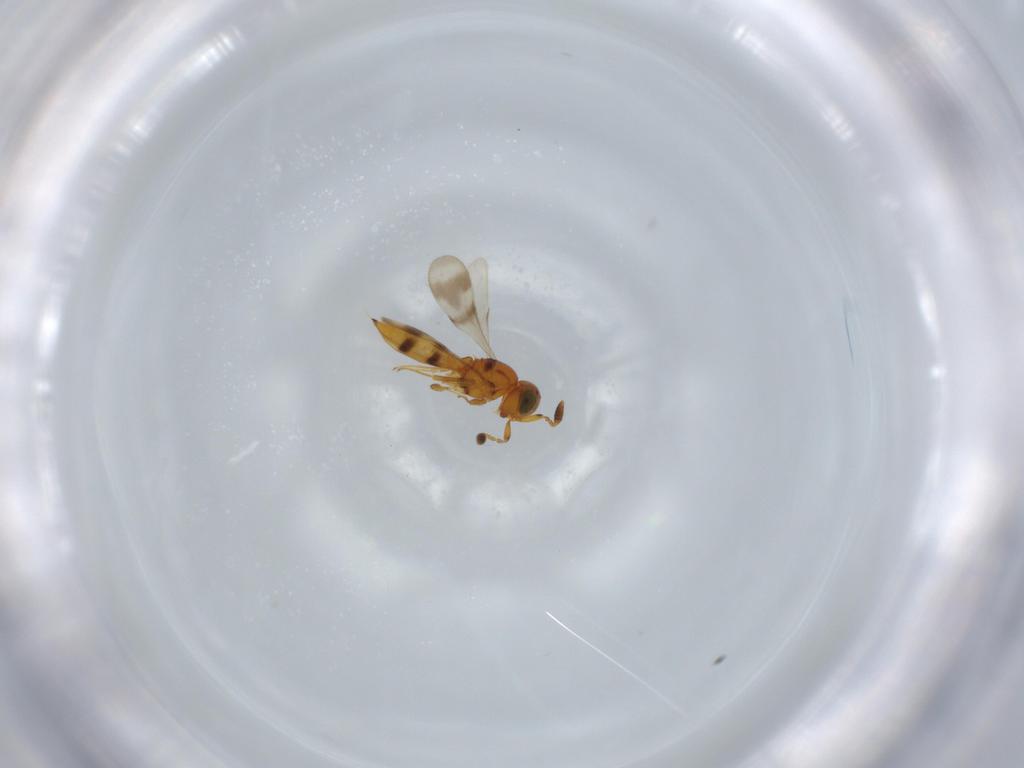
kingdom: Animalia
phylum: Arthropoda
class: Insecta
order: Hymenoptera
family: Scelionidae
